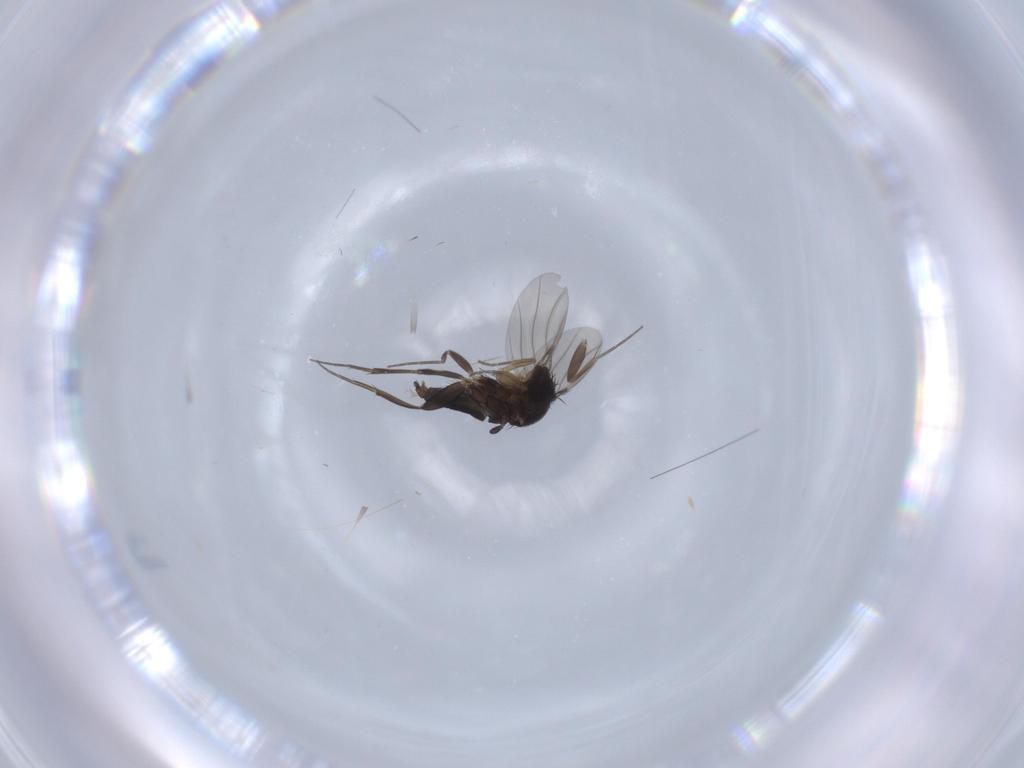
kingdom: Animalia
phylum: Arthropoda
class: Insecta
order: Diptera
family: Phoridae
